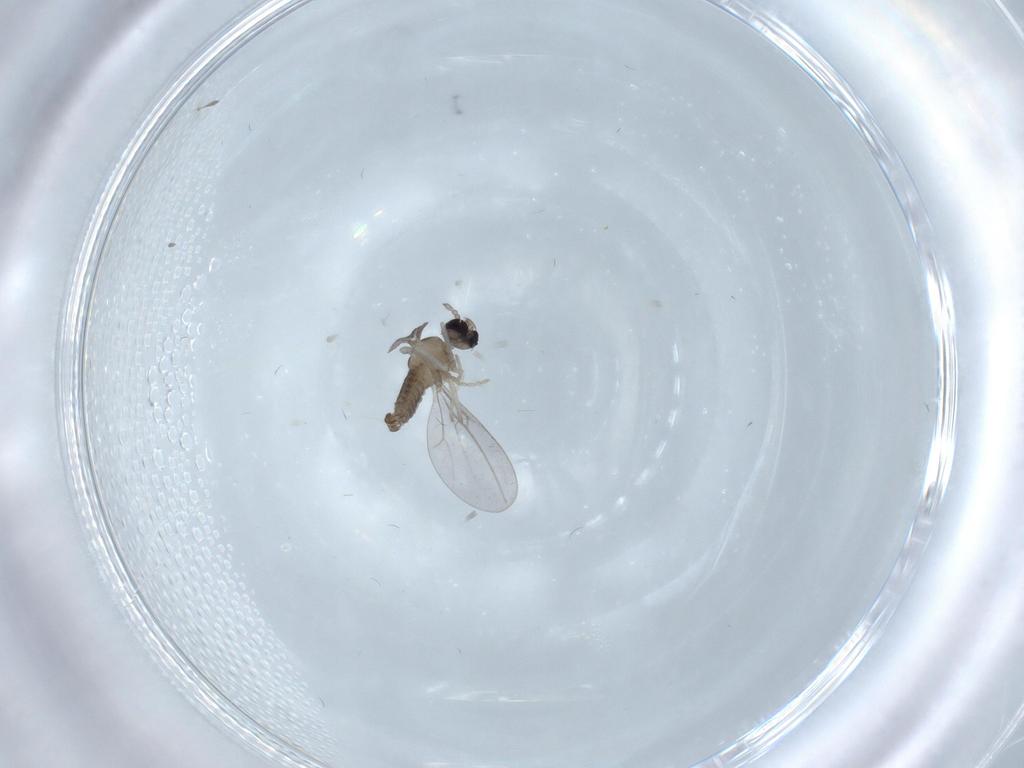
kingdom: Animalia
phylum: Arthropoda
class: Insecta
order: Diptera
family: Cecidomyiidae
